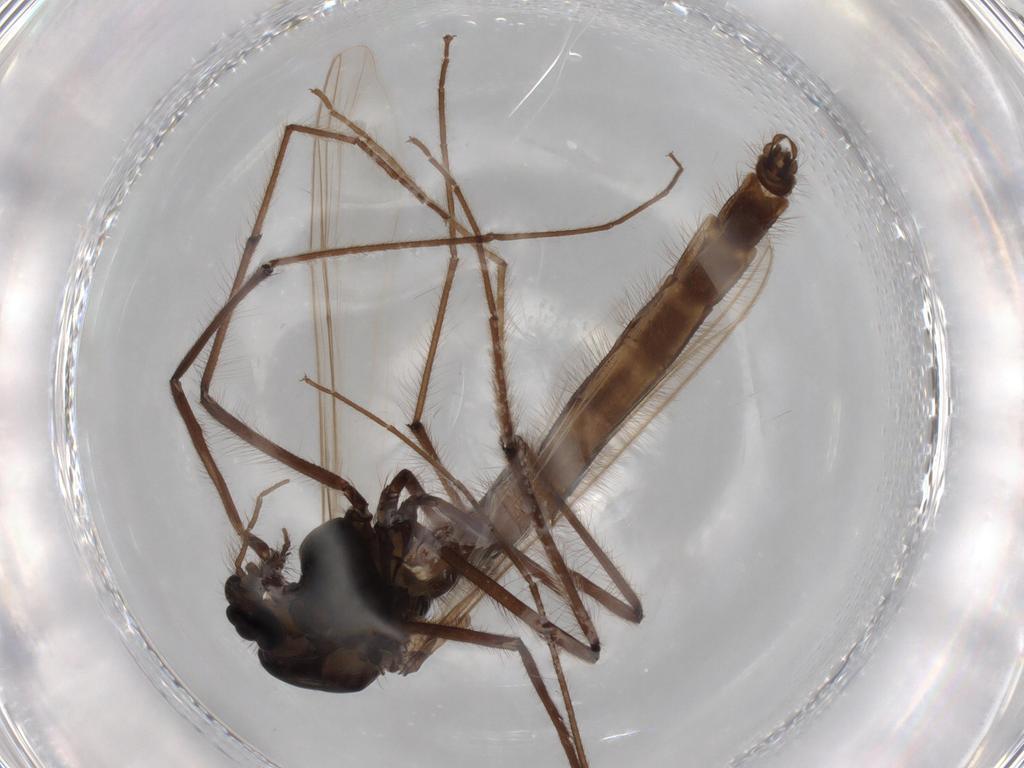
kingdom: Animalia
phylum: Arthropoda
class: Insecta
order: Diptera
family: Chironomidae
